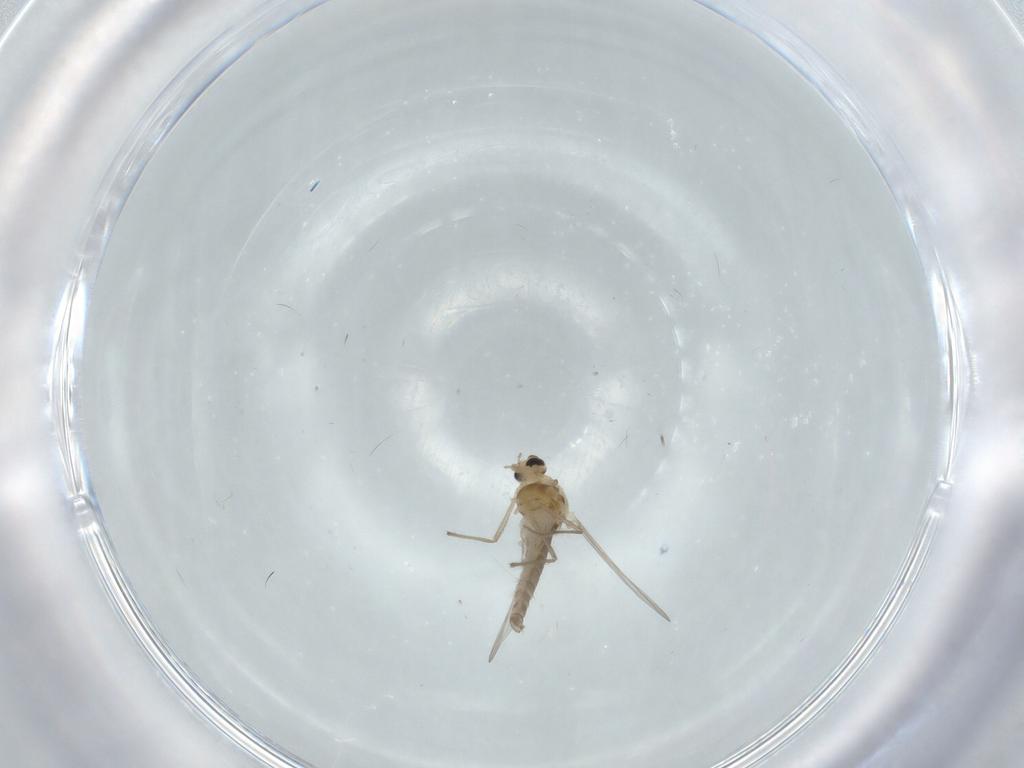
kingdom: Animalia
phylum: Arthropoda
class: Insecta
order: Diptera
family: Chironomidae
